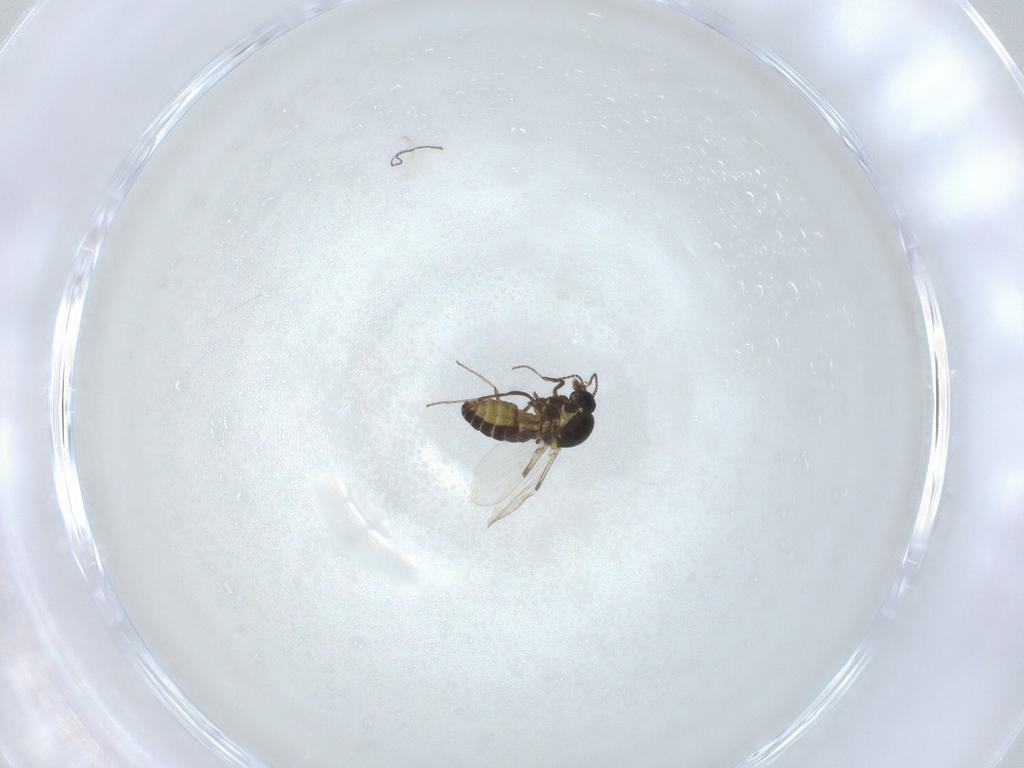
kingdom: Animalia
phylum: Arthropoda
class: Insecta
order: Diptera
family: Ceratopogonidae
